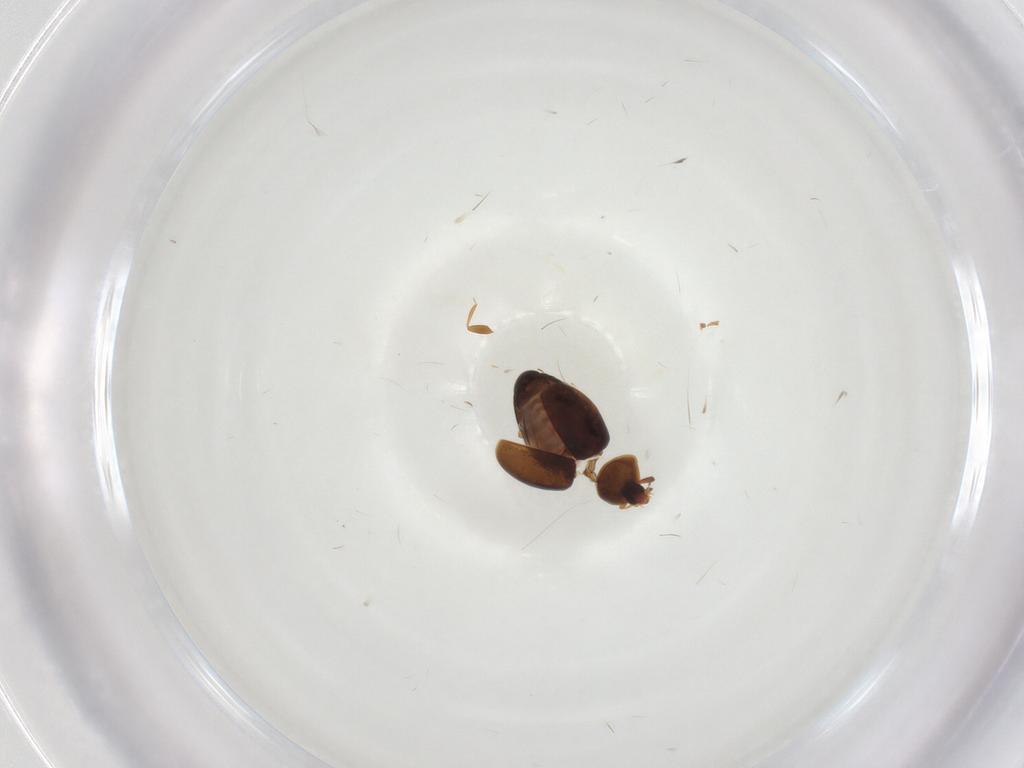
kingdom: Animalia
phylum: Arthropoda
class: Insecta
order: Coleoptera
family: Corylophidae
